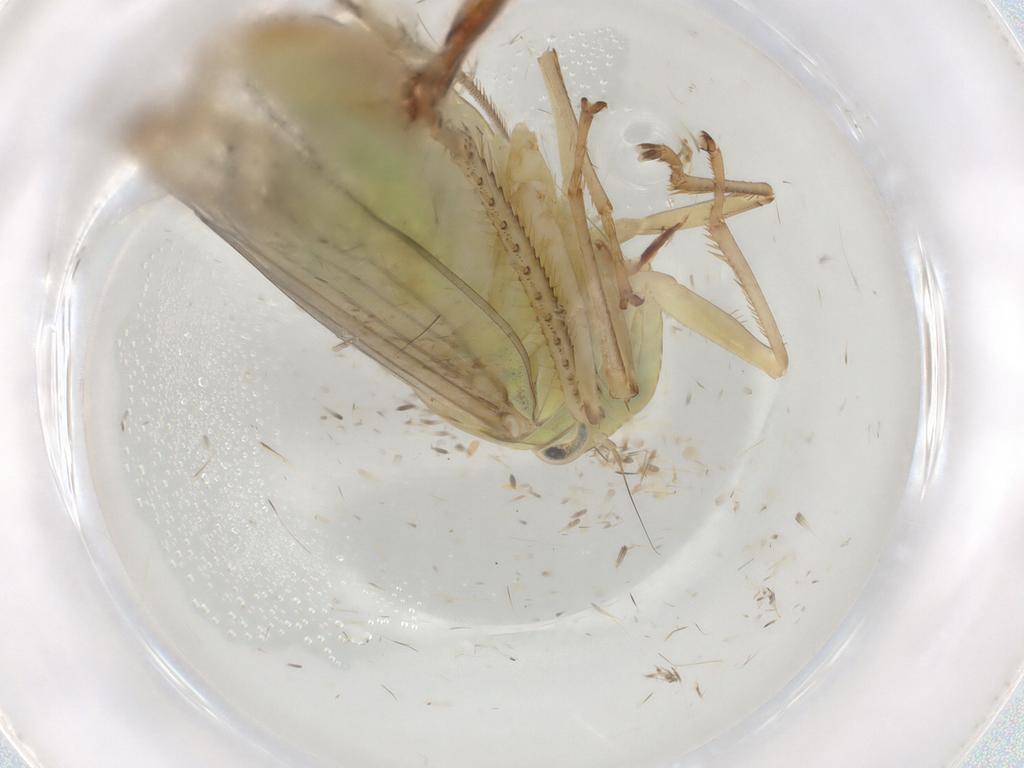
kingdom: Animalia
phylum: Arthropoda
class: Insecta
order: Hemiptera
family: Cicadellidae
